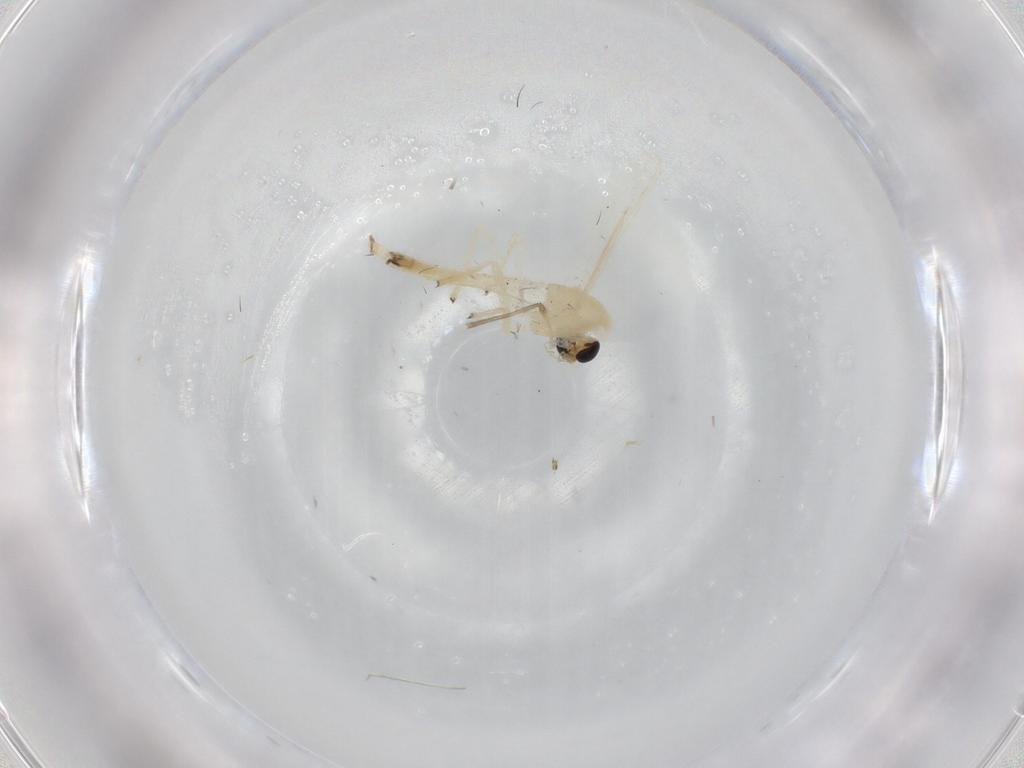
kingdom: Animalia
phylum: Arthropoda
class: Insecta
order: Diptera
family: Chironomidae
